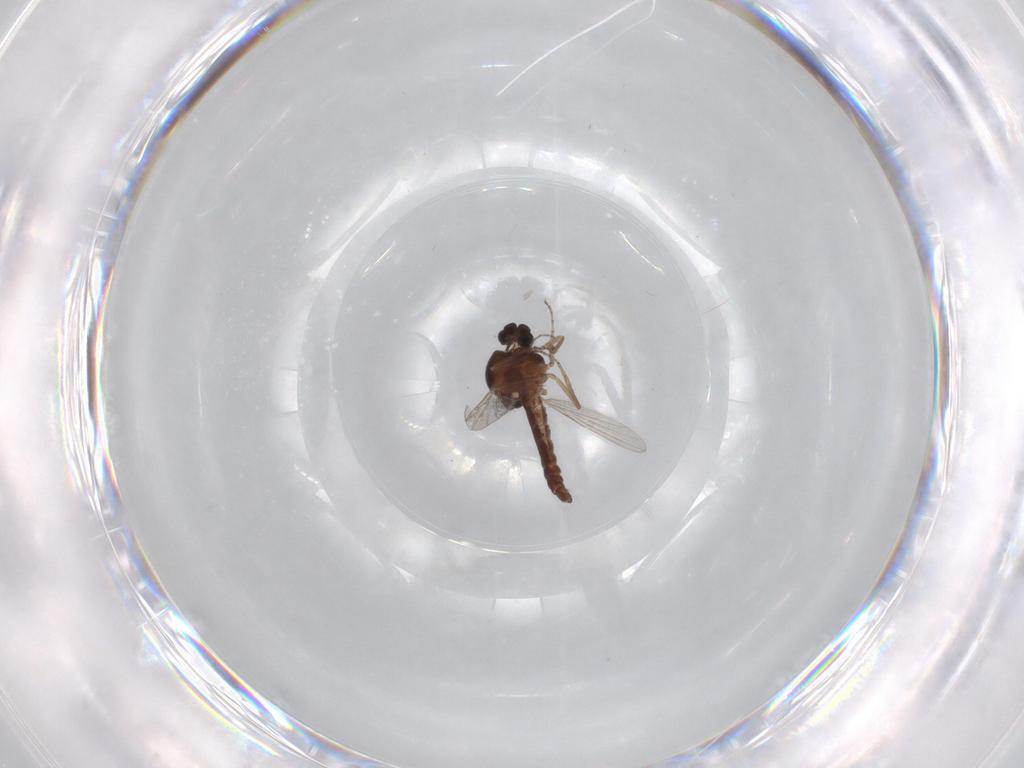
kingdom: Animalia
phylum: Arthropoda
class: Insecta
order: Diptera
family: Ceratopogonidae
